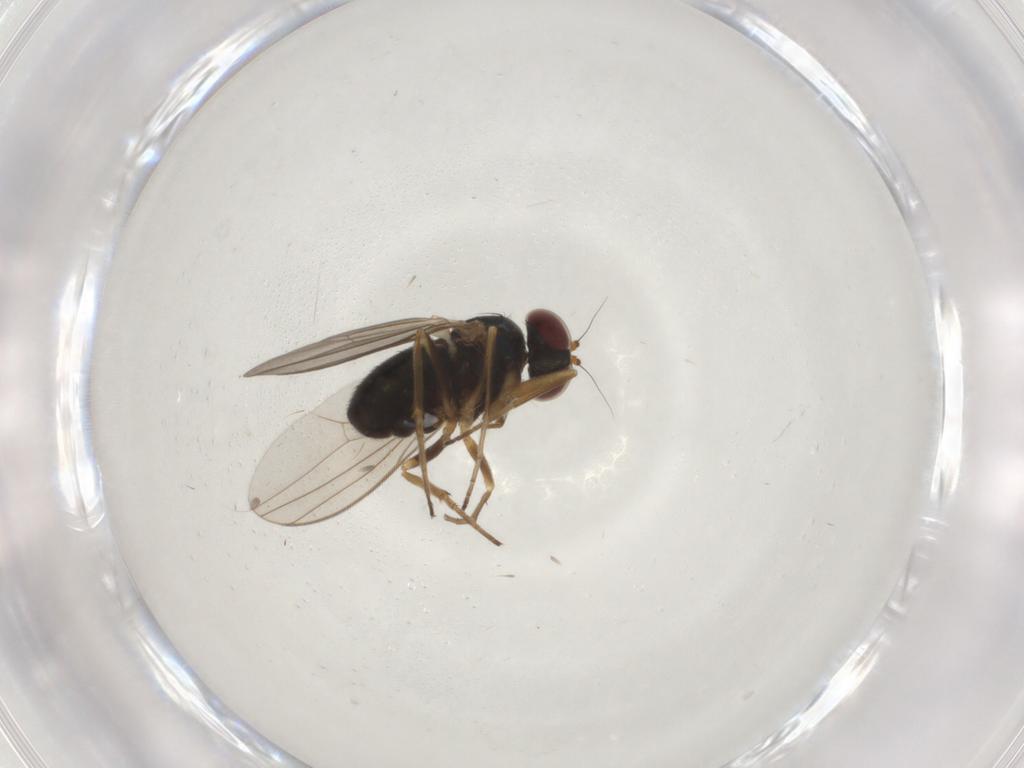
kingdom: Animalia
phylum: Arthropoda
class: Insecta
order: Diptera
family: Dolichopodidae
